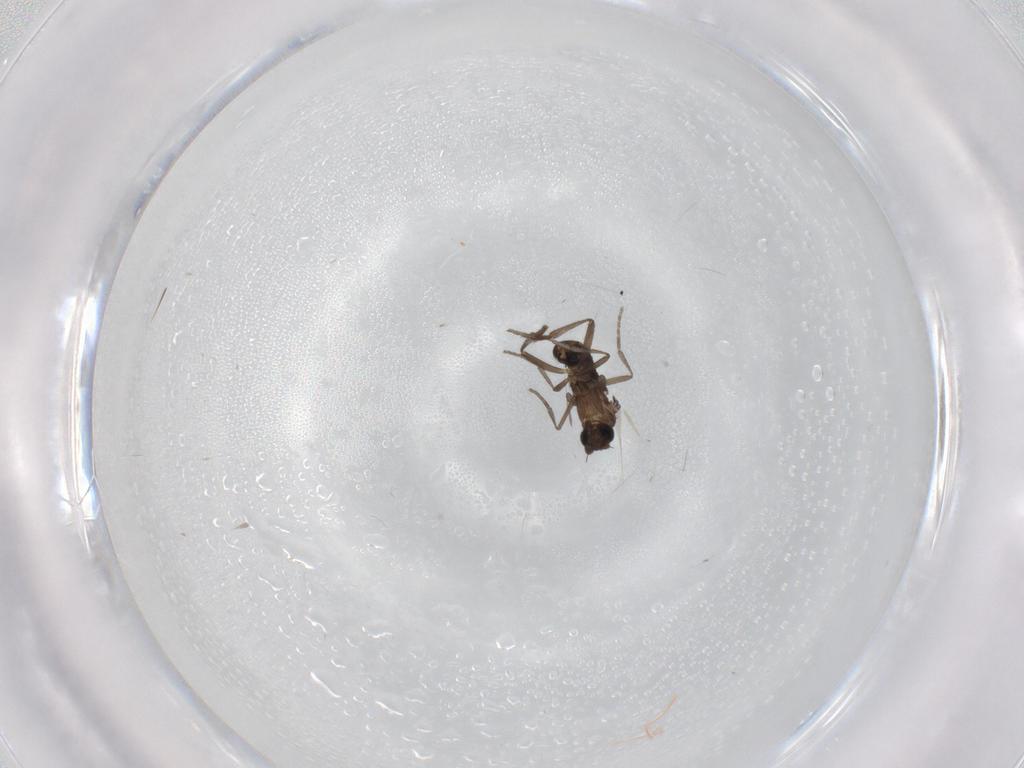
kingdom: Animalia
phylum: Arthropoda
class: Insecta
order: Diptera
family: Phoridae
